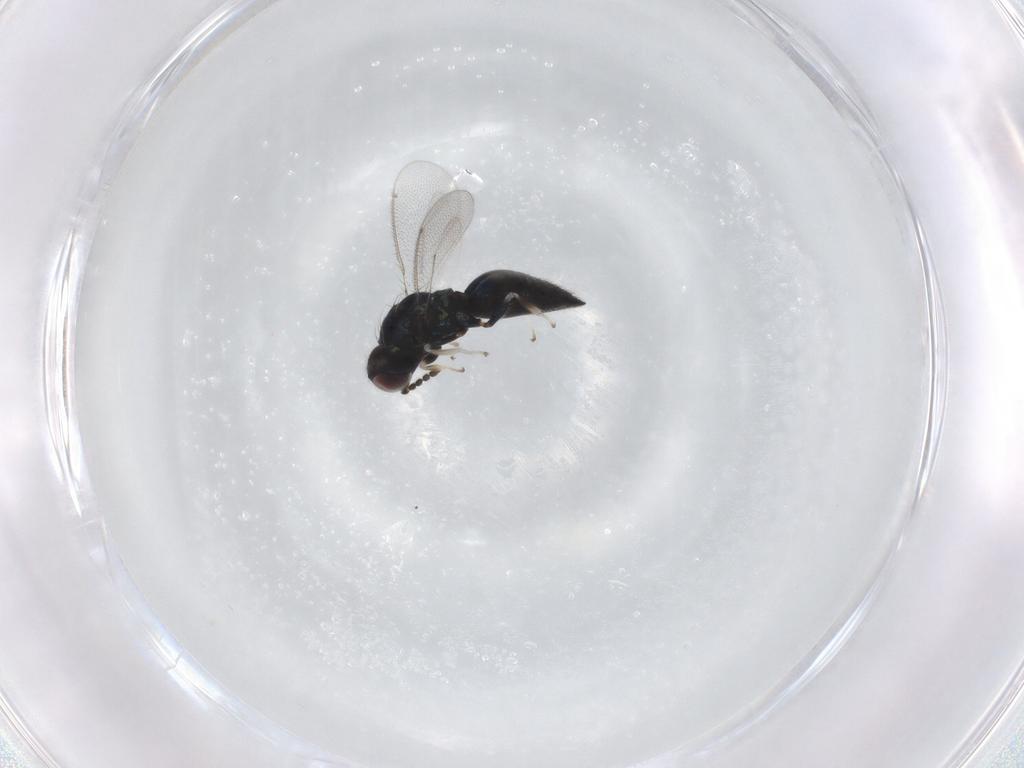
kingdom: Animalia
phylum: Arthropoda
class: Insecta
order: Hymenoptera
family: Eulophidae
